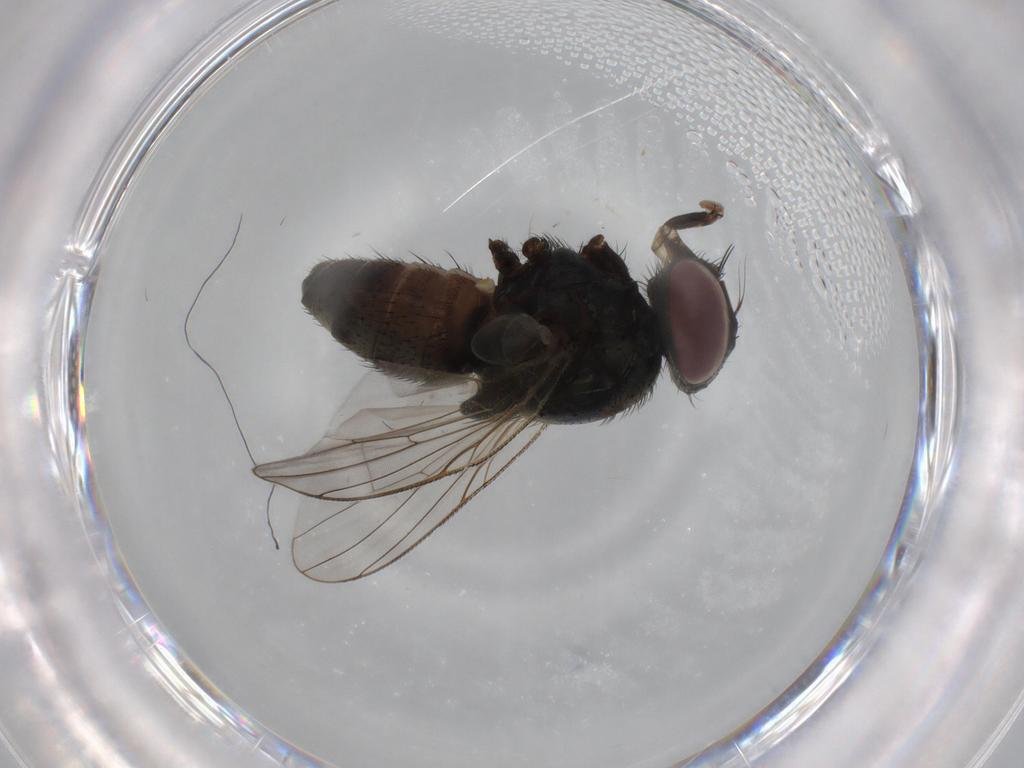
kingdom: Animalia
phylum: Arthropoda
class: Insecta
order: Diptera
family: Muscidae
